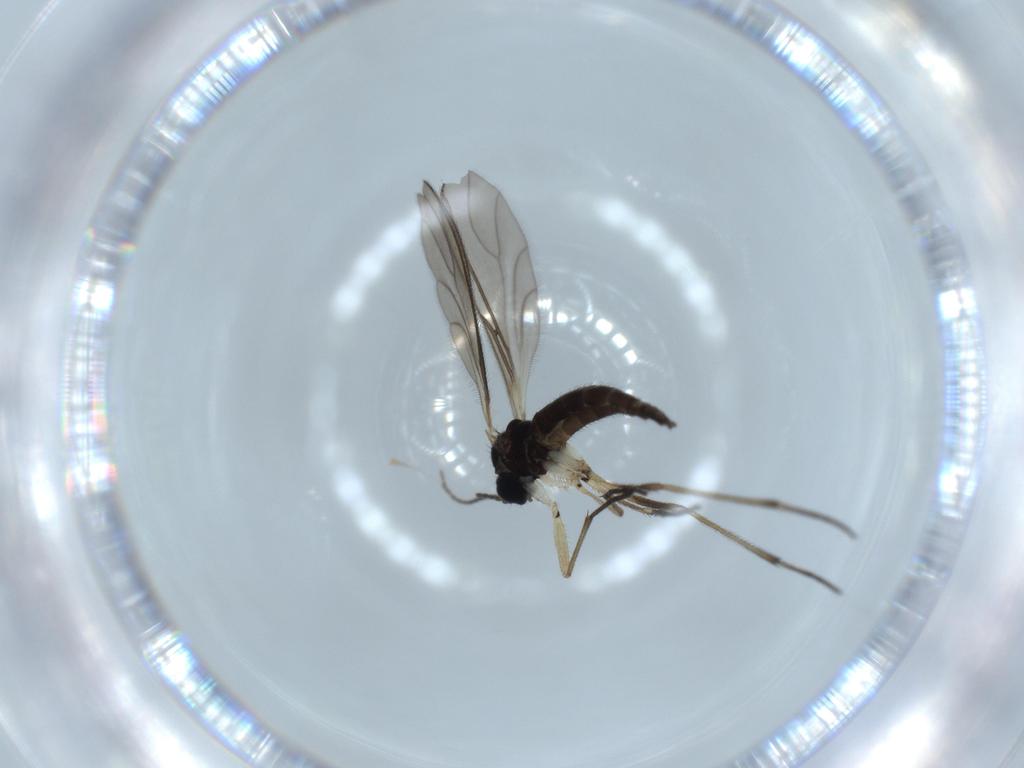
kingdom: Animalia
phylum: Arthropoda
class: Insecta
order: Diptera
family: Sciaridae
